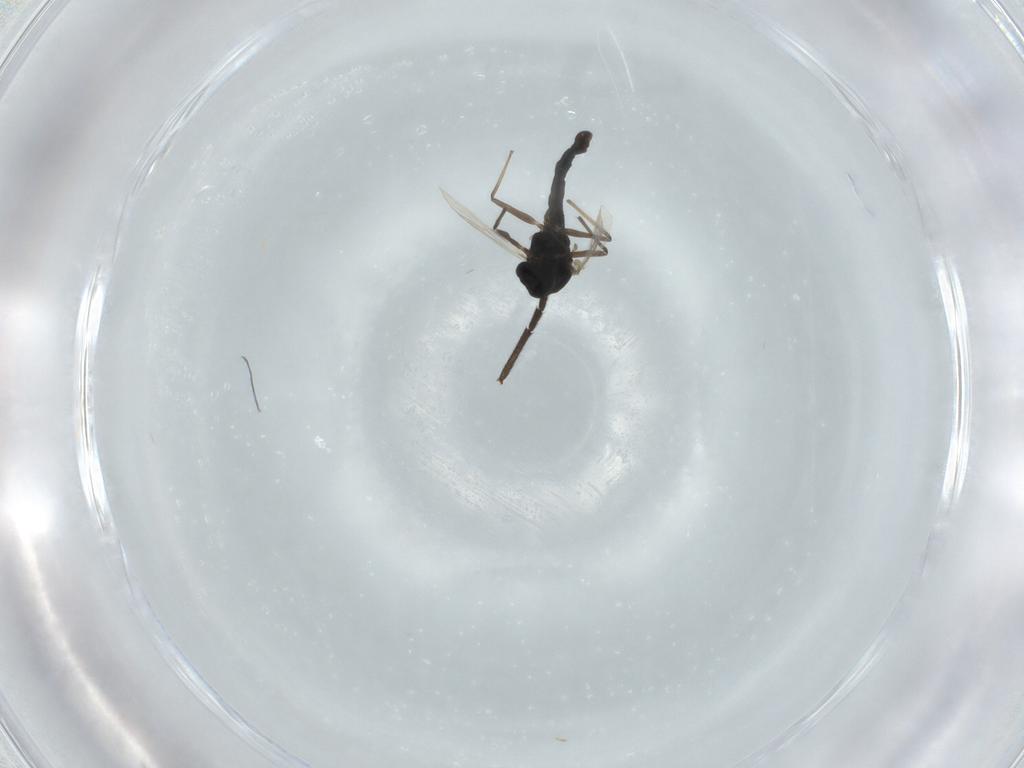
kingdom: Animalia
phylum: Arthropoda
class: Insecta
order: Diptera
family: Chironomidae
